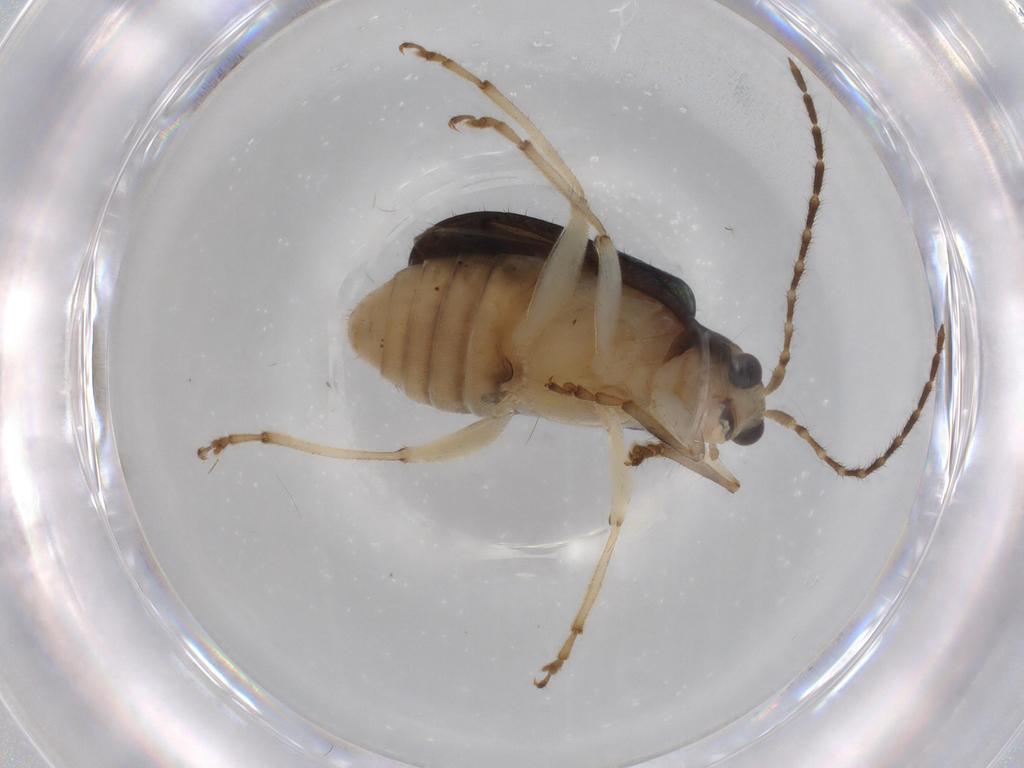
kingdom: Animalia
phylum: Arthropoda
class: Insecta
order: Coleoptera
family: Chrysomelidae
